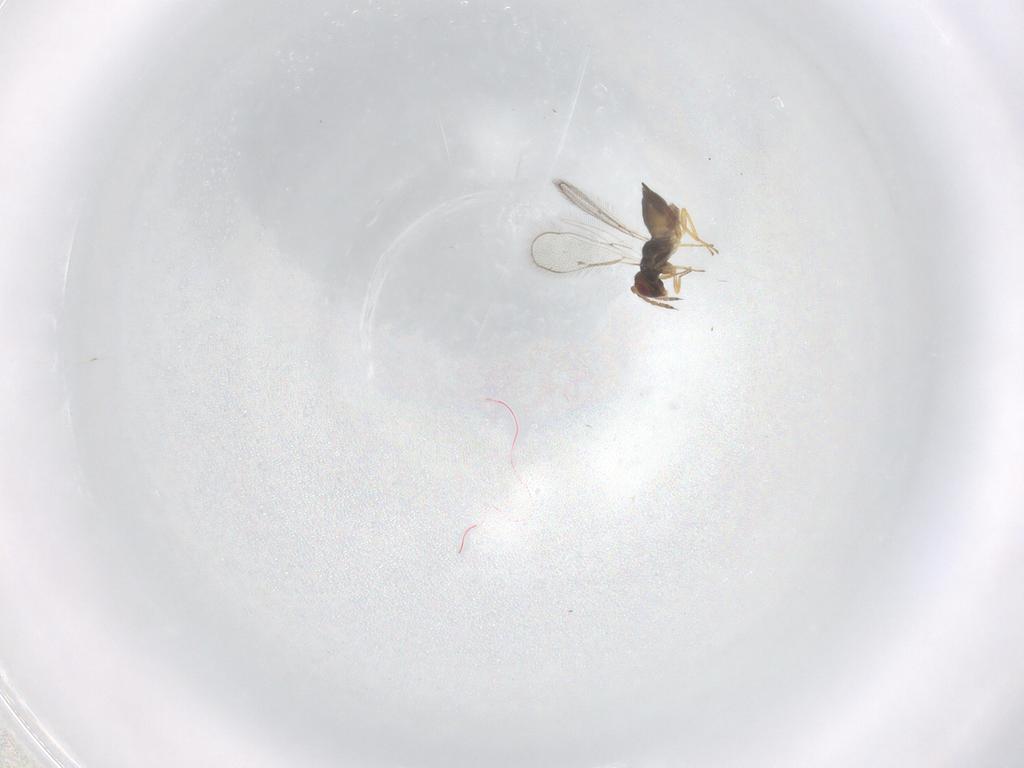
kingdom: Animalia
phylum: Arthropoda
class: Insecta
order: Hymenoptera
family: Eulophidae
